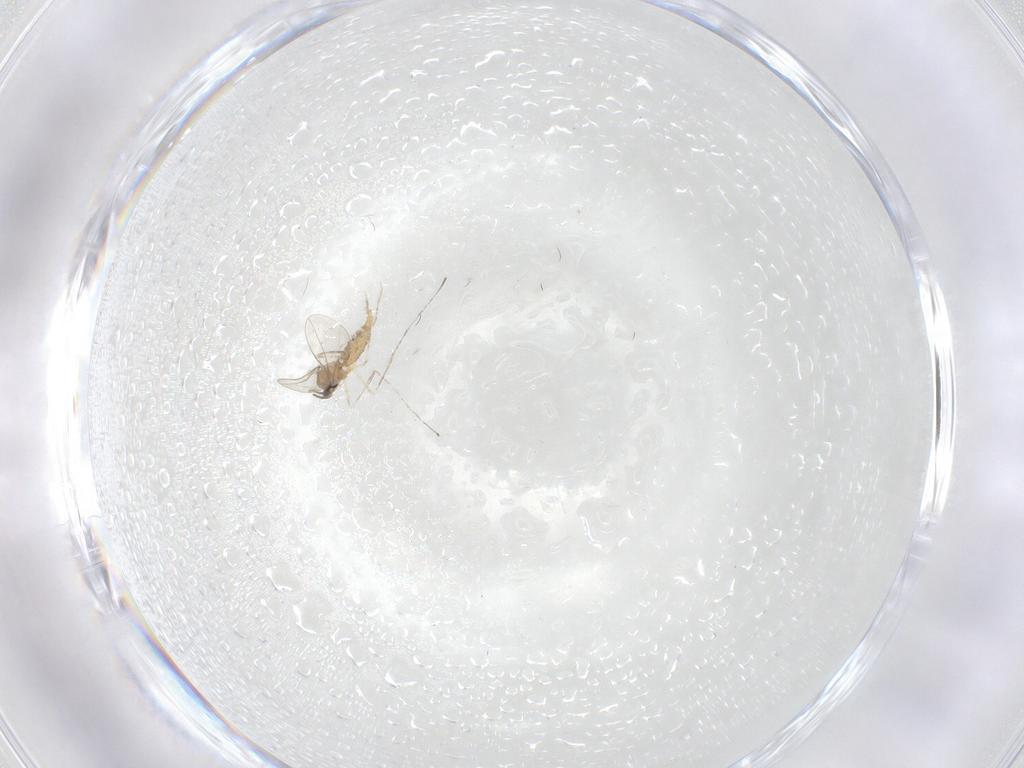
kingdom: Animalia
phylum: Arthropoda
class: Insecta
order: Diptera
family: Cecidomyiidae
